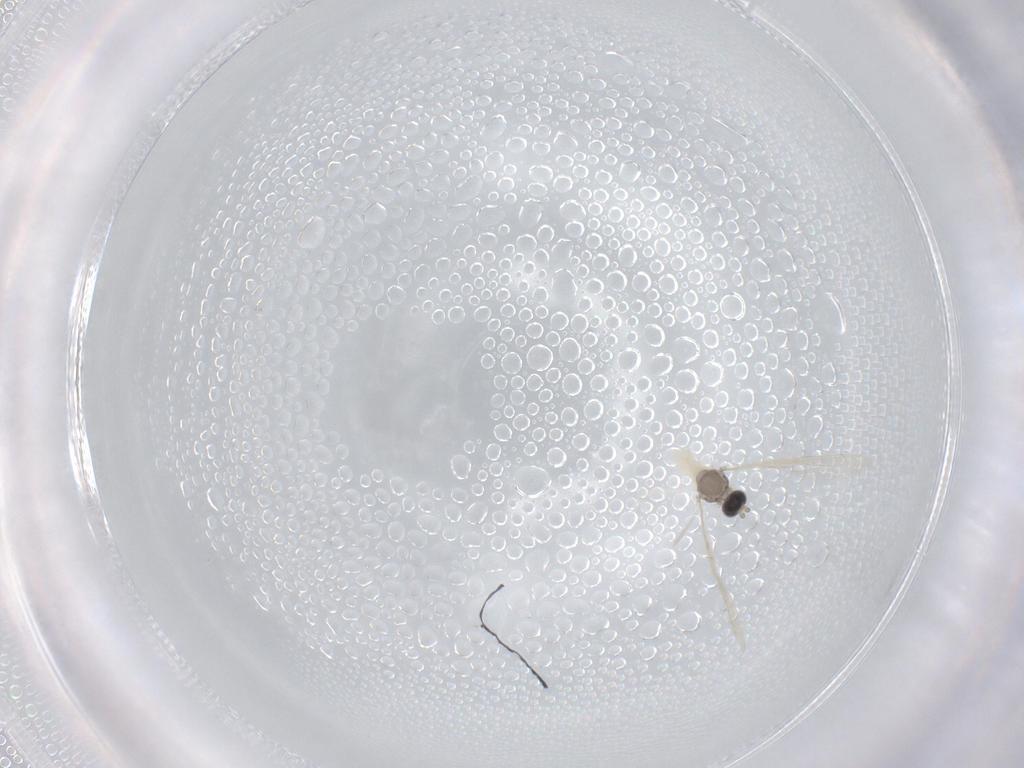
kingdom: Animalia
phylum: Arthropoda
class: Insecta
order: Diptera
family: Cecidomyiidae
